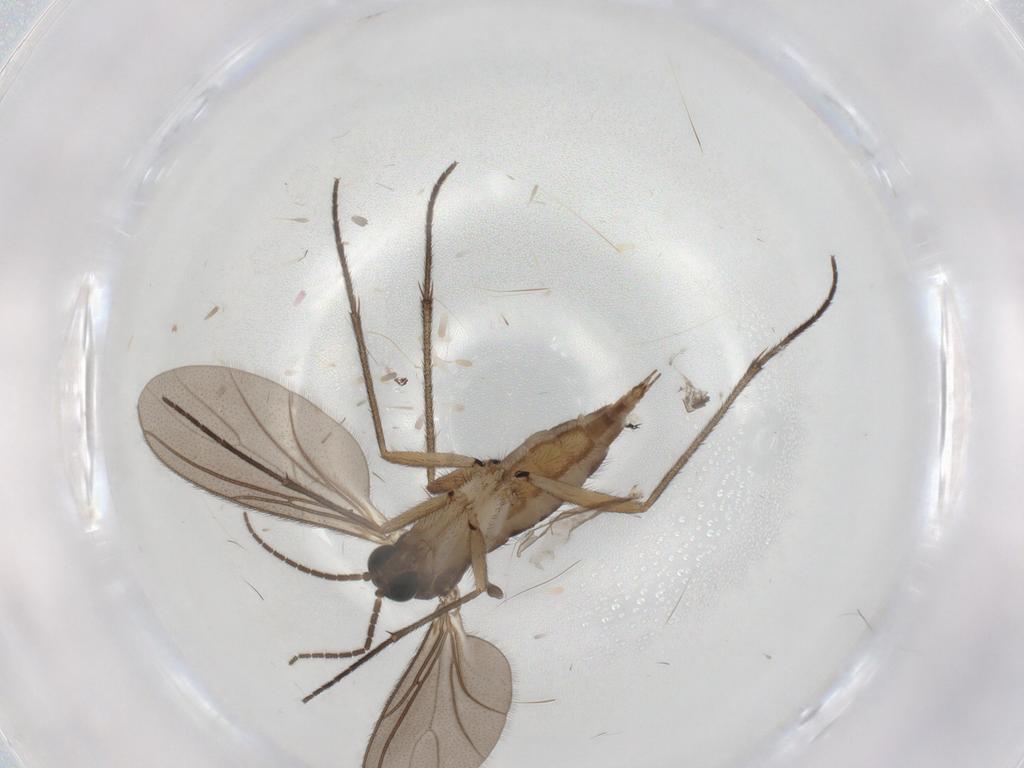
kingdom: Animalia
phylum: Arthropoda
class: Insecta
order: Diptera
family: Sciaridae
